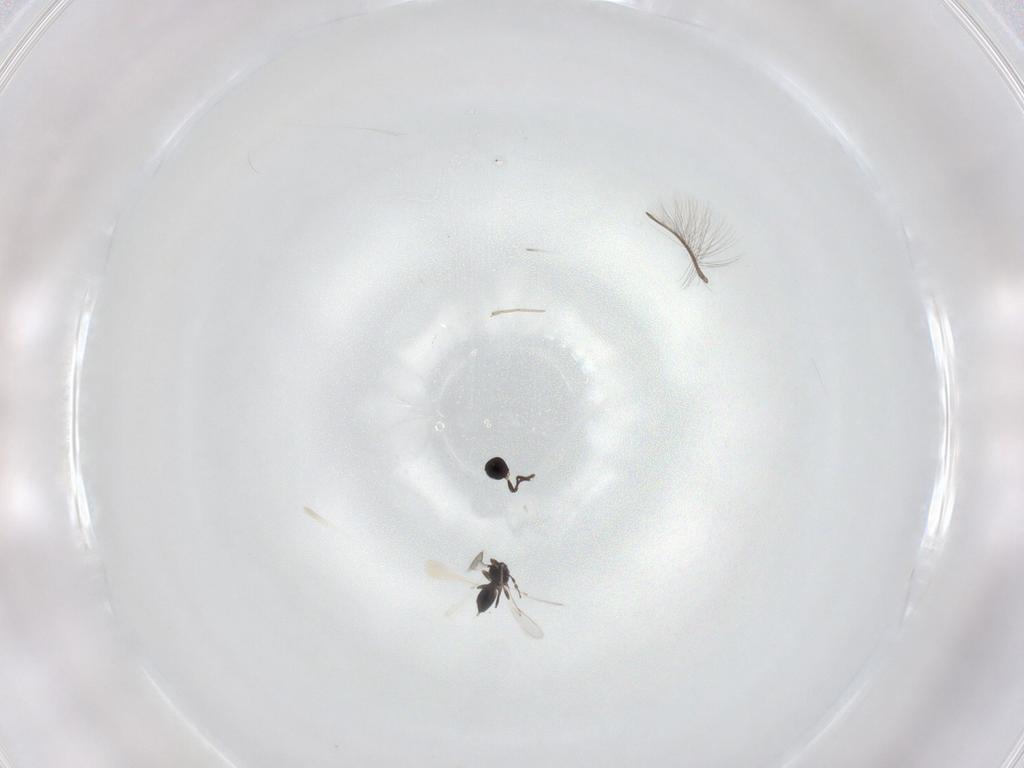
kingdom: Animalia
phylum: Arthropoda
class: Insecta
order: Hymenoptera
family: Scelionidae
